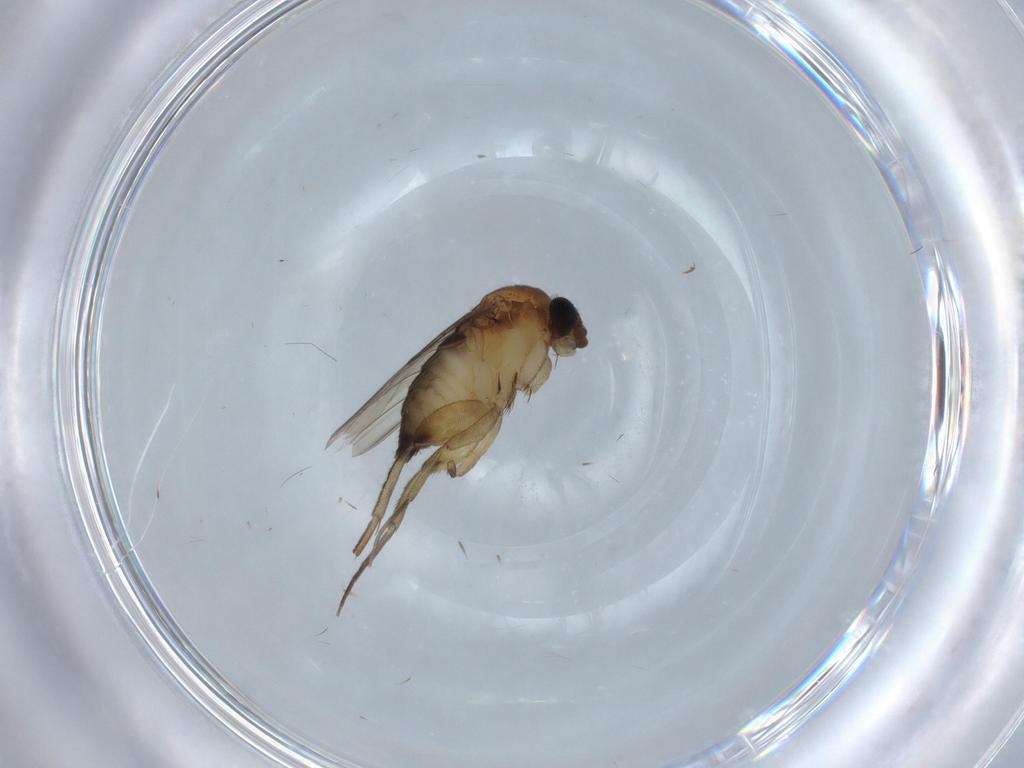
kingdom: Animalia
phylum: Arthropoda
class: Insecta
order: Diptera
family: Phoridae
